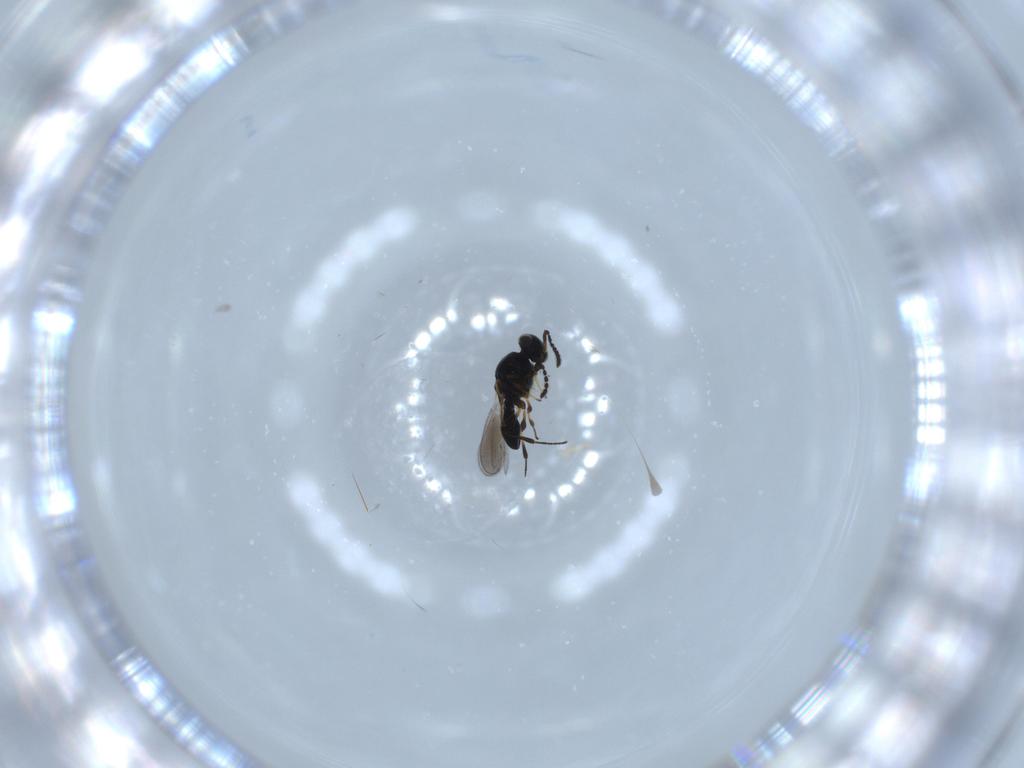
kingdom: Animalia
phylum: Arthropoda
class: Insecta
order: Hymenoptera
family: Platygastridae
